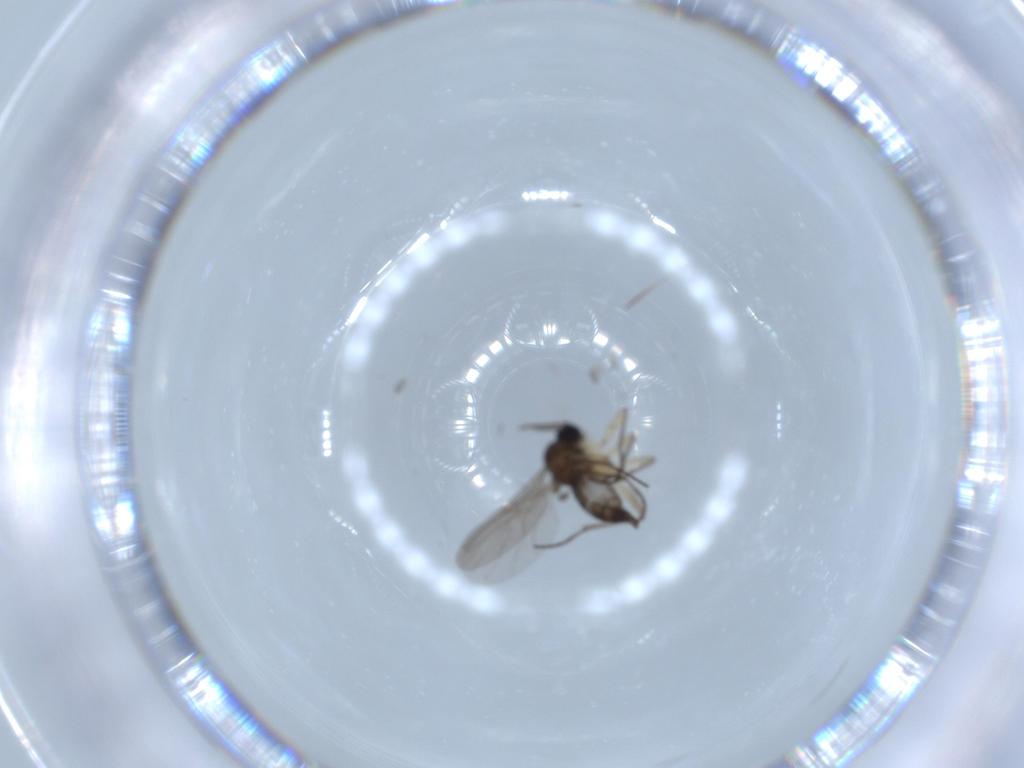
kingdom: Animalia
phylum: Arthropoda
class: Insecta
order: Diptera
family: Sciaridae
